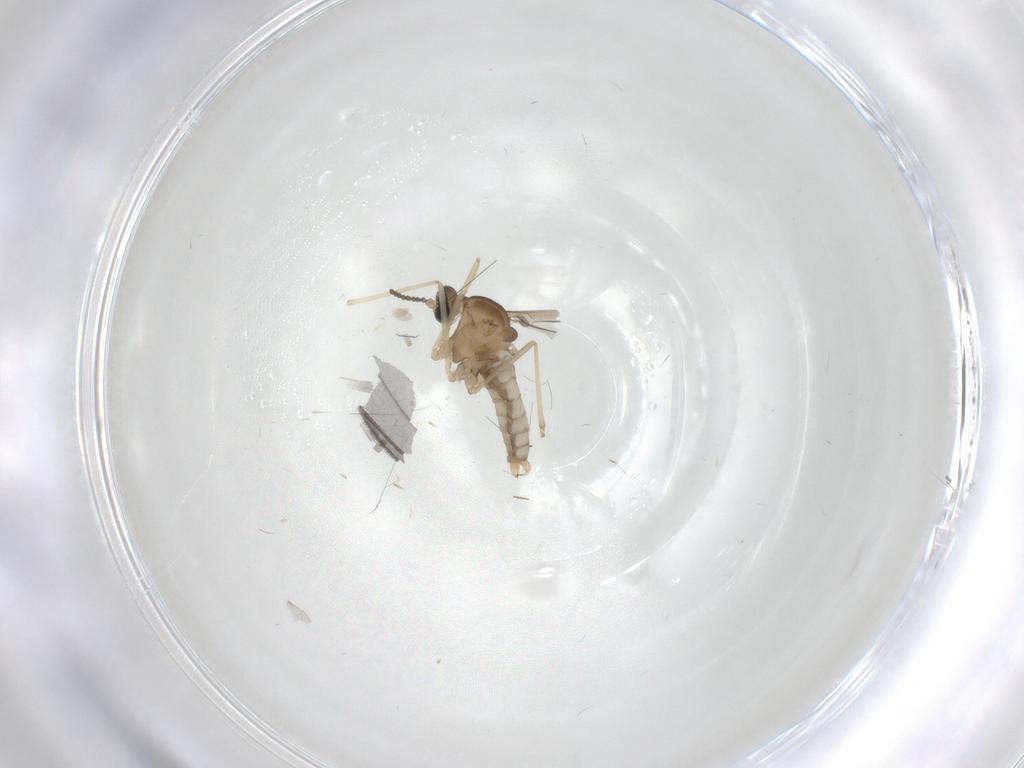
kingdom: Animalia
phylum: Arthropoda
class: Insecta
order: Diptera
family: Cecidomyiidae
